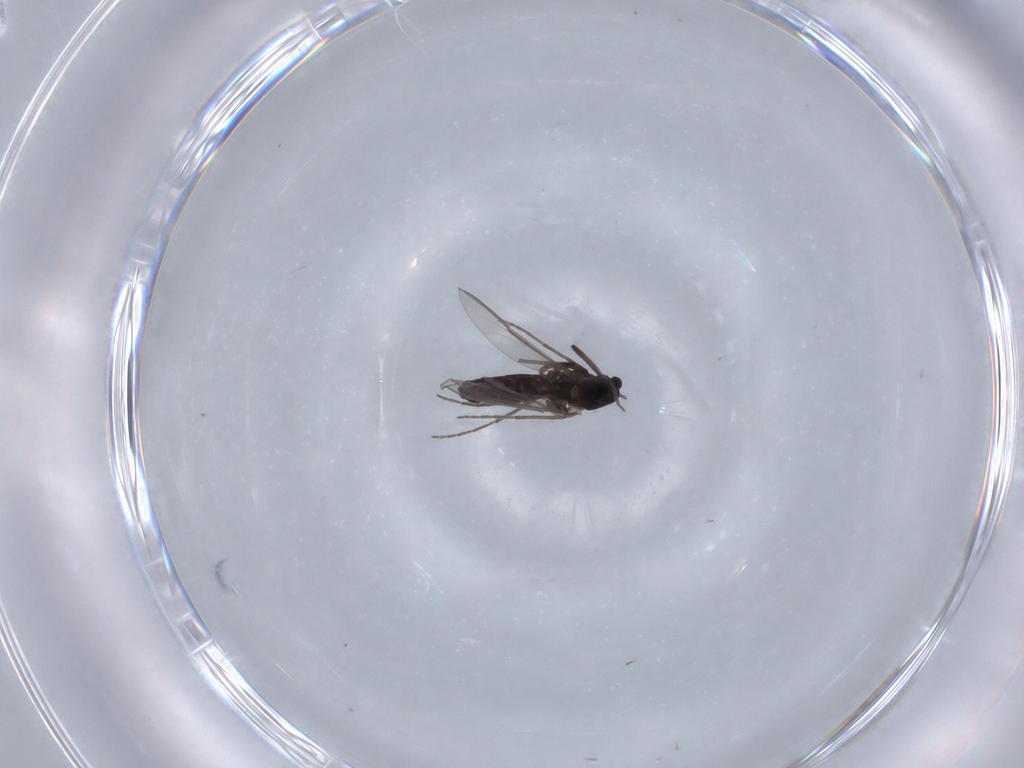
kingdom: Animalia
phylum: Arthropoda
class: Insecta
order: Diptera
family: Chironomidae
